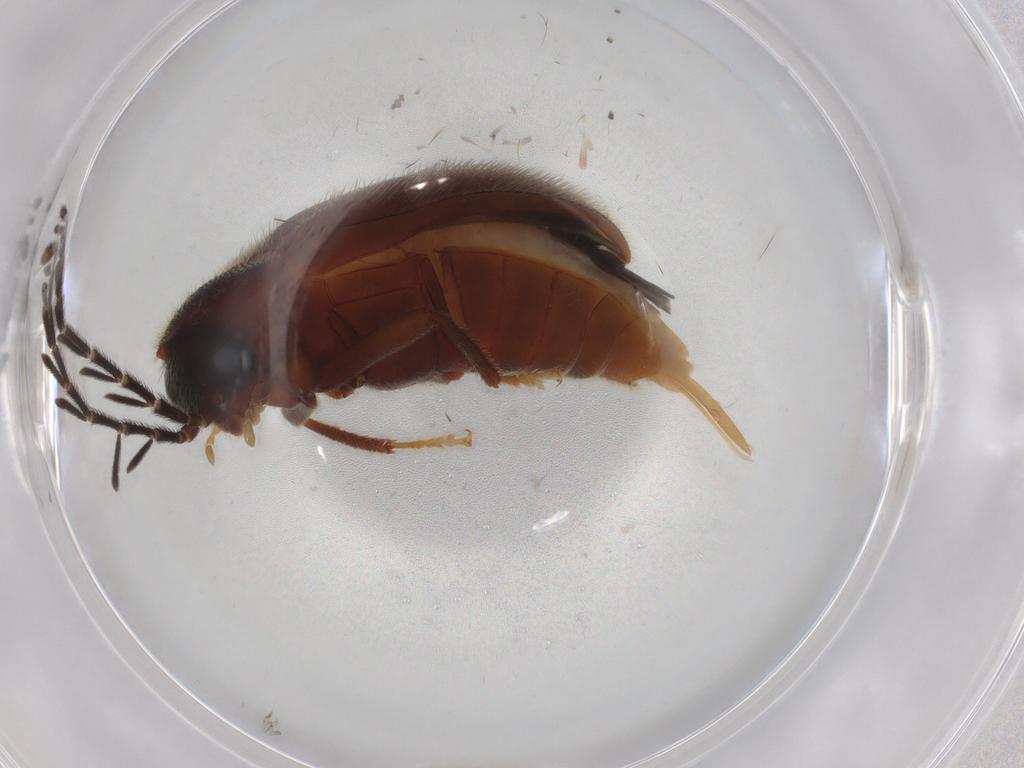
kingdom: Animalia
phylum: Arthropoda
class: Insecta
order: Coleoptera
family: Ptilodactylidae
